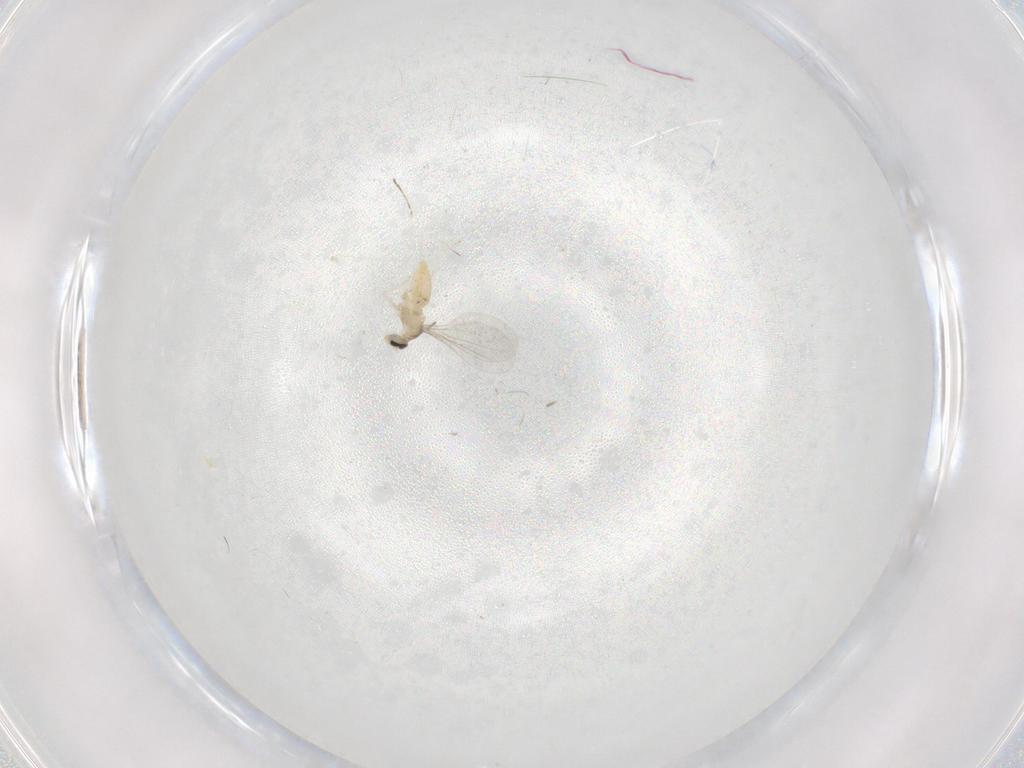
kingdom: Animalia
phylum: Arthropoda
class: Insecta
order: Diptera
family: Cecidomyiidae
